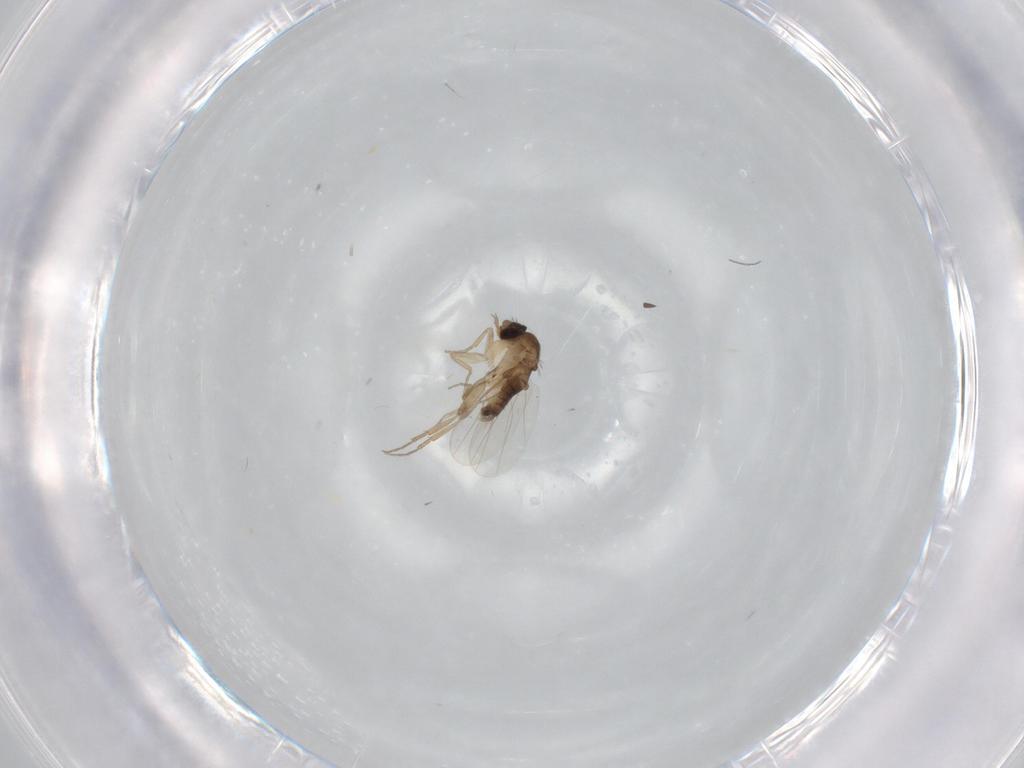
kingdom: Animalia
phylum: Arthropoda
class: Insecta
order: Diptera
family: Phoridae
